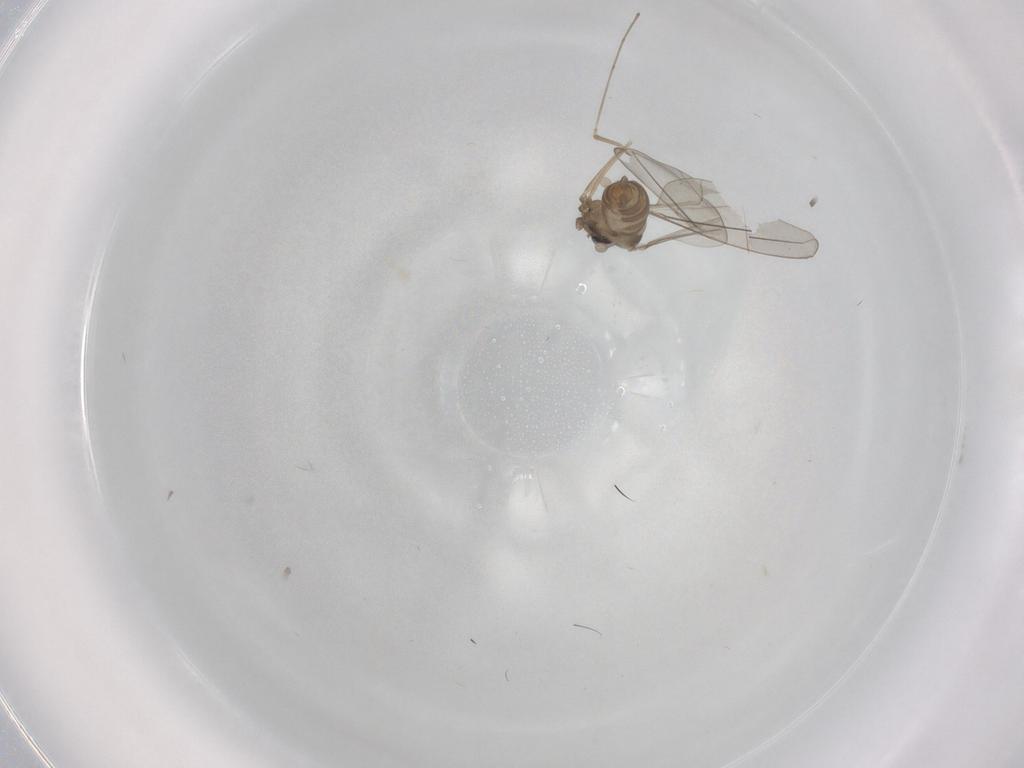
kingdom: Animalia
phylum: Arthropoda
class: Insecta
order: Diptera
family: Cecidomyiidae
